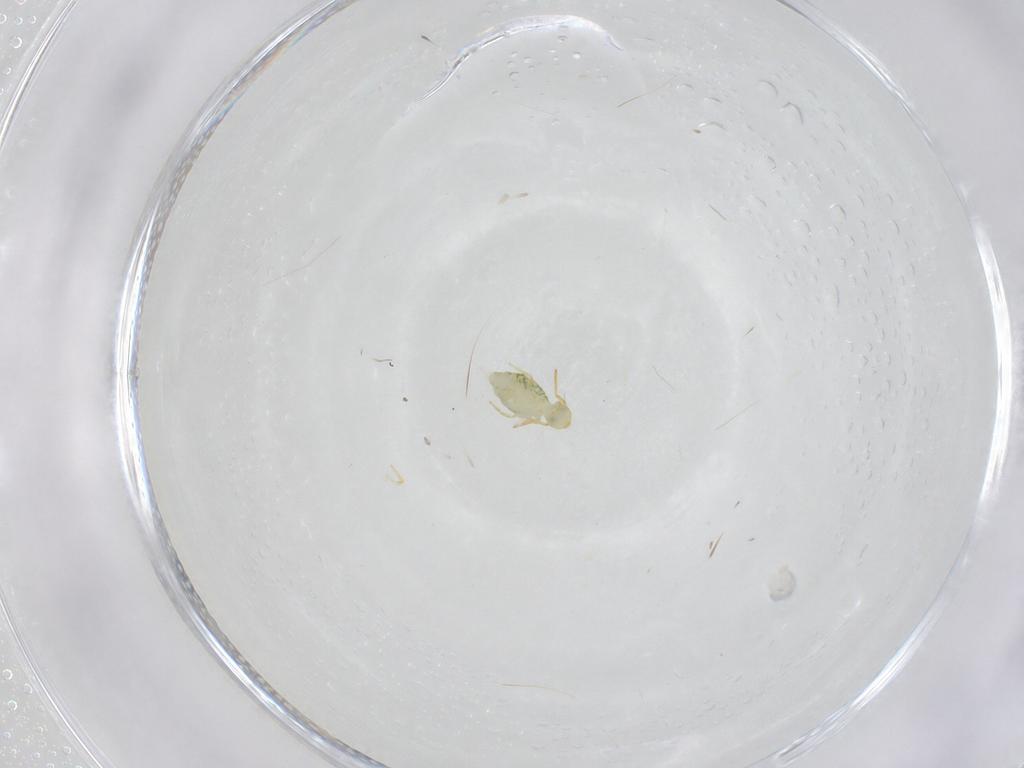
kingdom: Animalia
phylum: Arthropoda
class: Collembola
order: Symphypleona
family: Katiannidae
